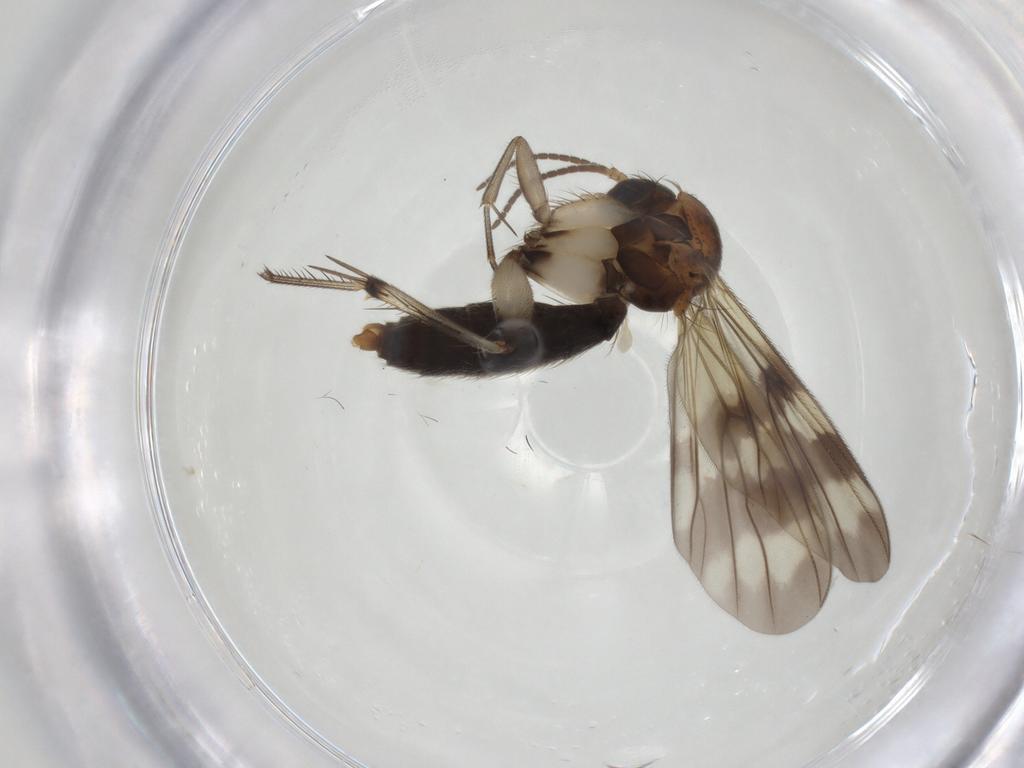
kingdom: Animalia
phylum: Arthropoda
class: Insecta
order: Diptera
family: Mycetophilidae
